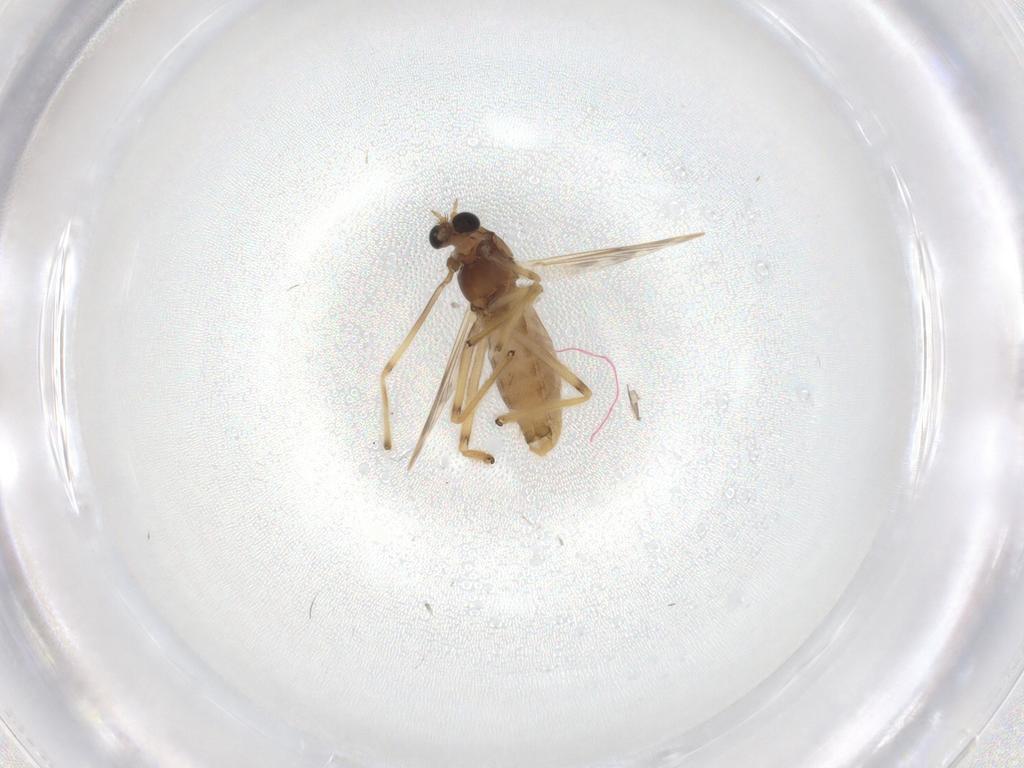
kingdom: Animalia
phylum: Arthropoda
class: Insecta
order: Diptera
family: Chironomidae
